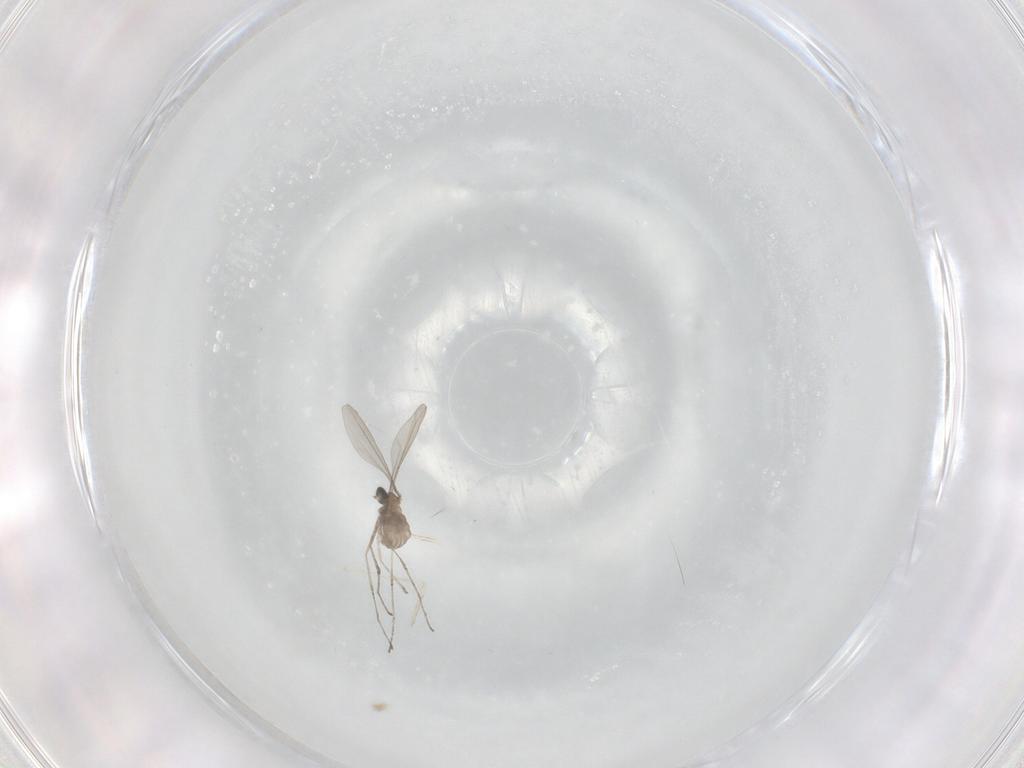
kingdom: Animalia
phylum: Arthropoda
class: Insecta
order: Diptera
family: Cecidomyiidae
